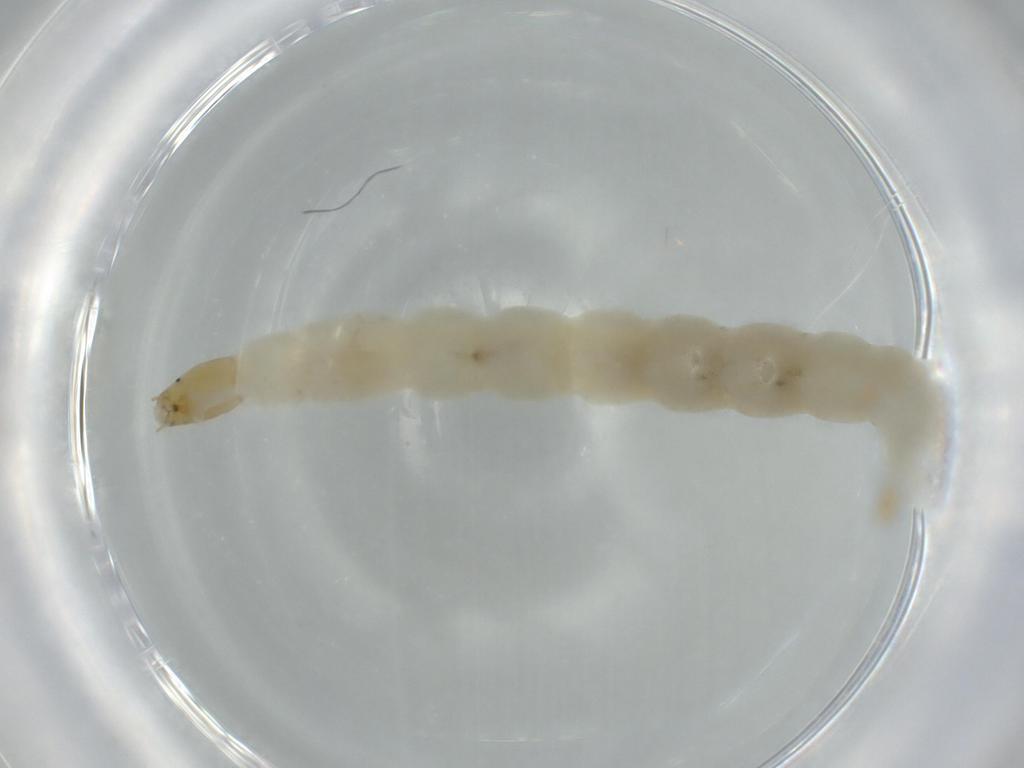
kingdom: Animalia
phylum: Arthropoda
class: Insecta
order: Diptera
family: Chironomidae
